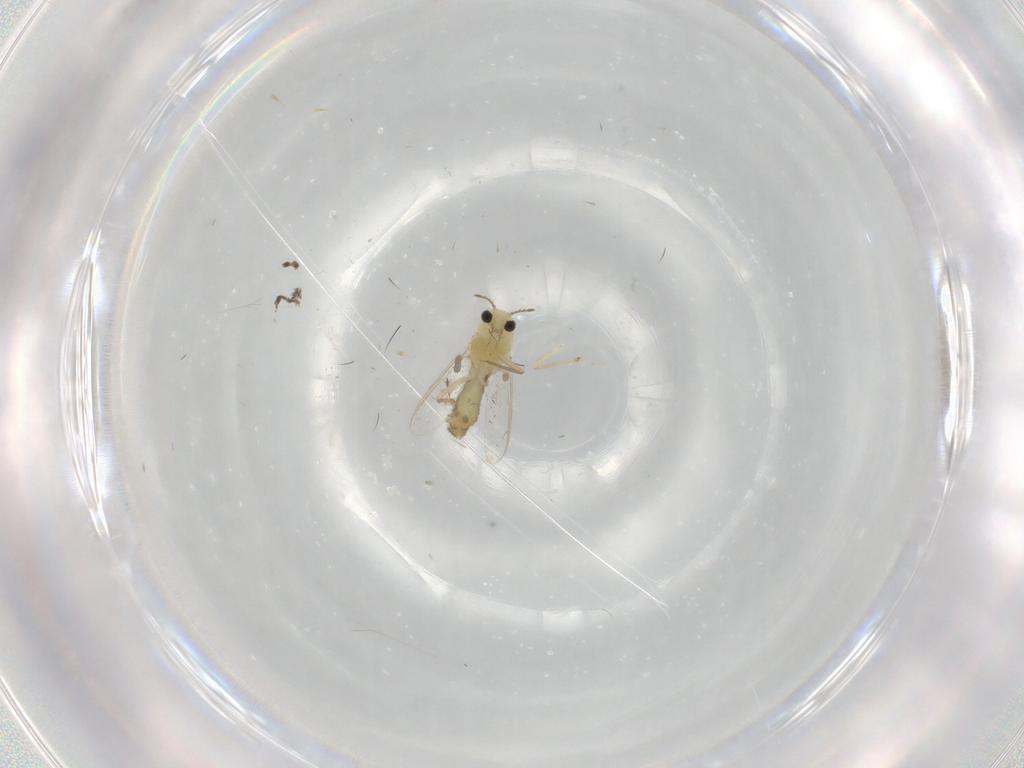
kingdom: Animalia
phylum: Arthropoda
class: Insecta
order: Diptera
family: Chironomidae
